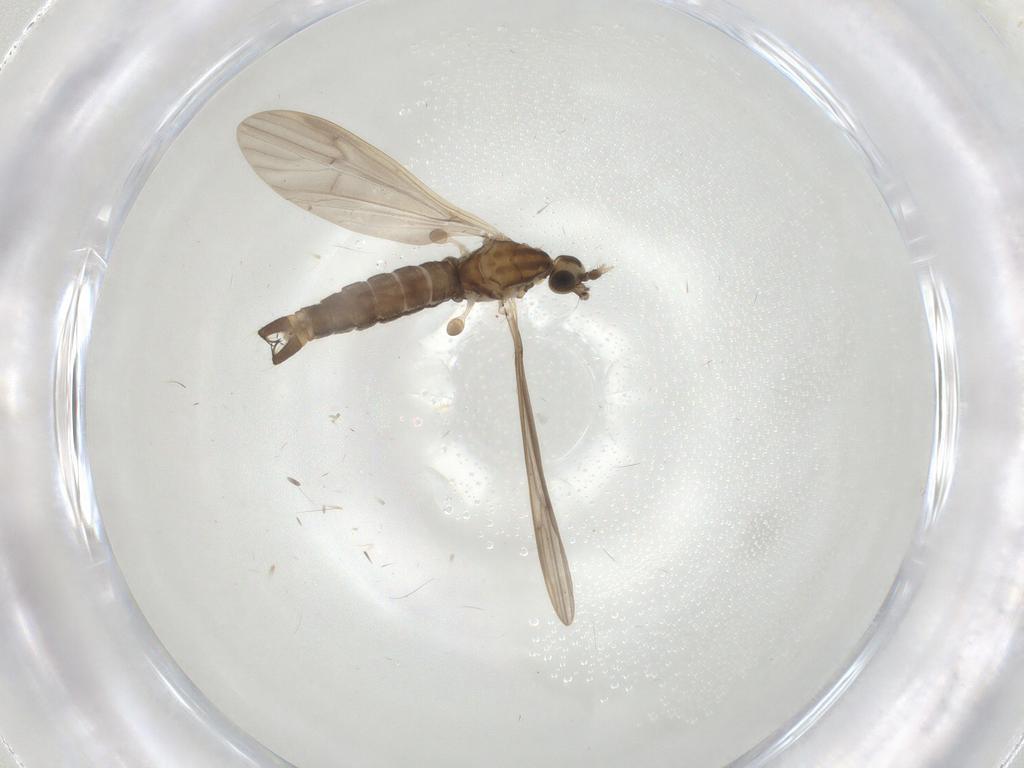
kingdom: Animalia
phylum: Arthropoda
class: Insecta
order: Diptera
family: Limoniidae
